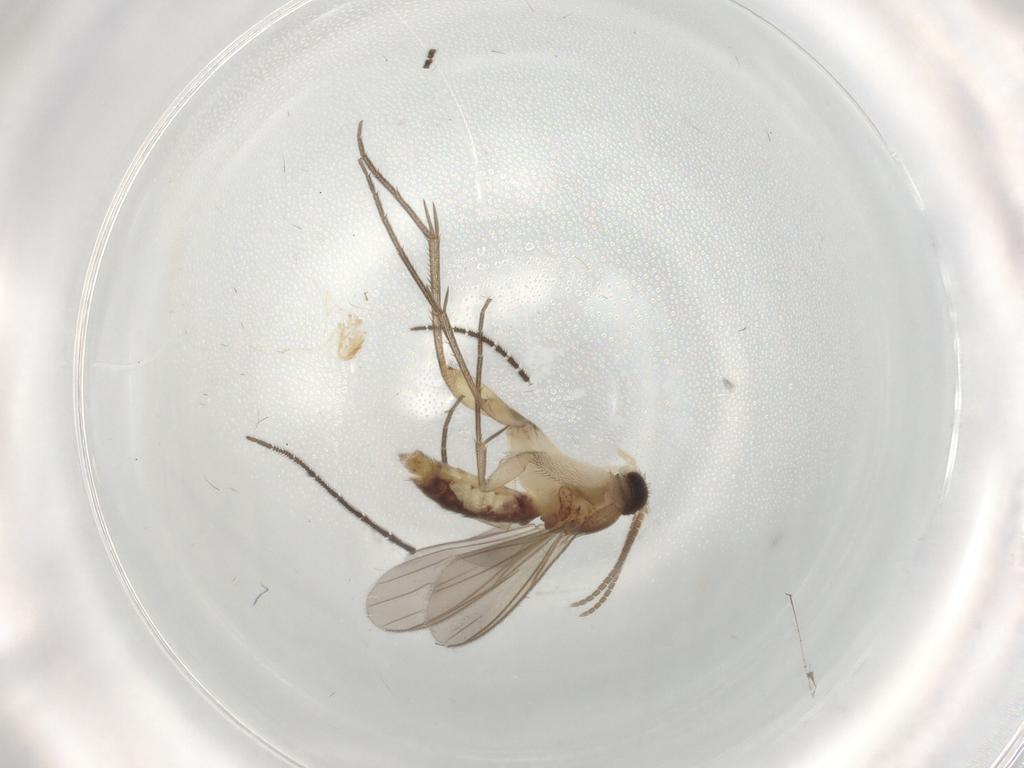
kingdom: Animalia
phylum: Arthropoda
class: Insecta
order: Diptera
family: Mycetophilidae
